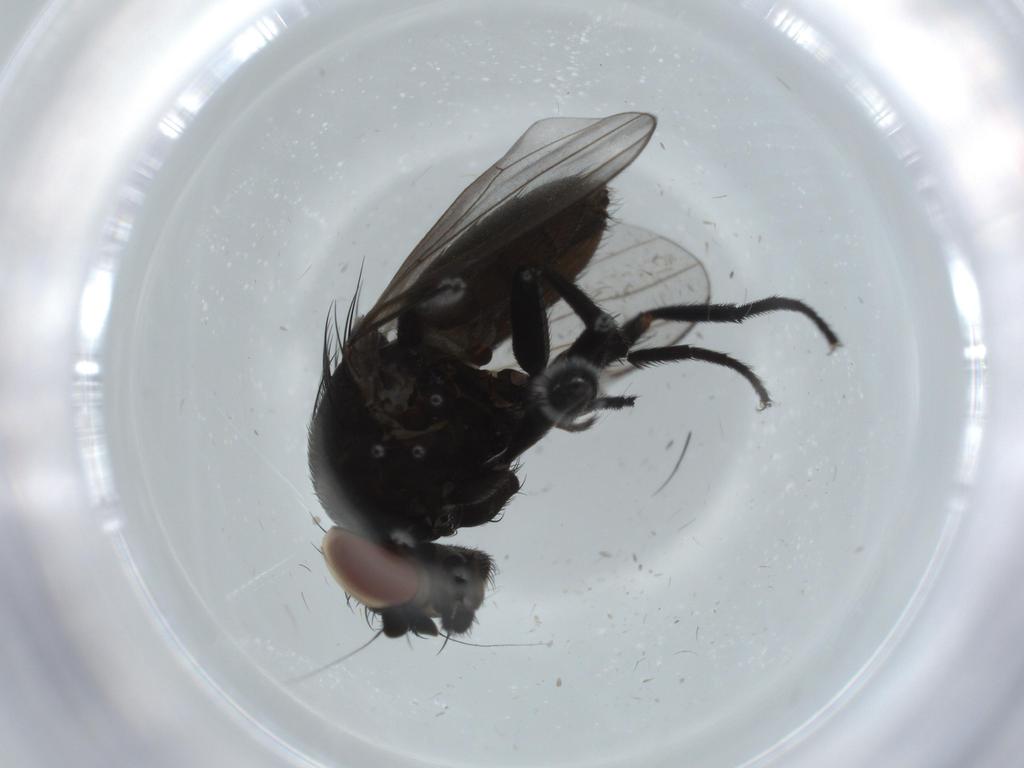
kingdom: Animalia
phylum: Arthropoda
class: Insecta
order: Diptera
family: Milichiidae
